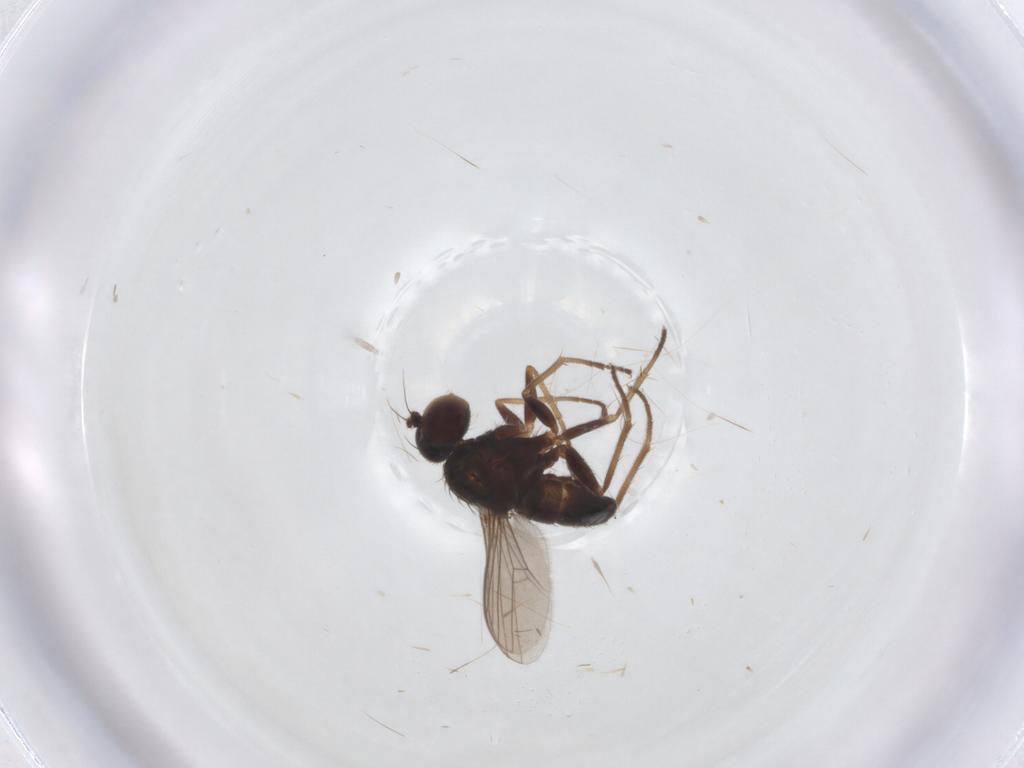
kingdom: Animalia
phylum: Arthropoda
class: Insecta
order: Diptera
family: Dolichopodidae
